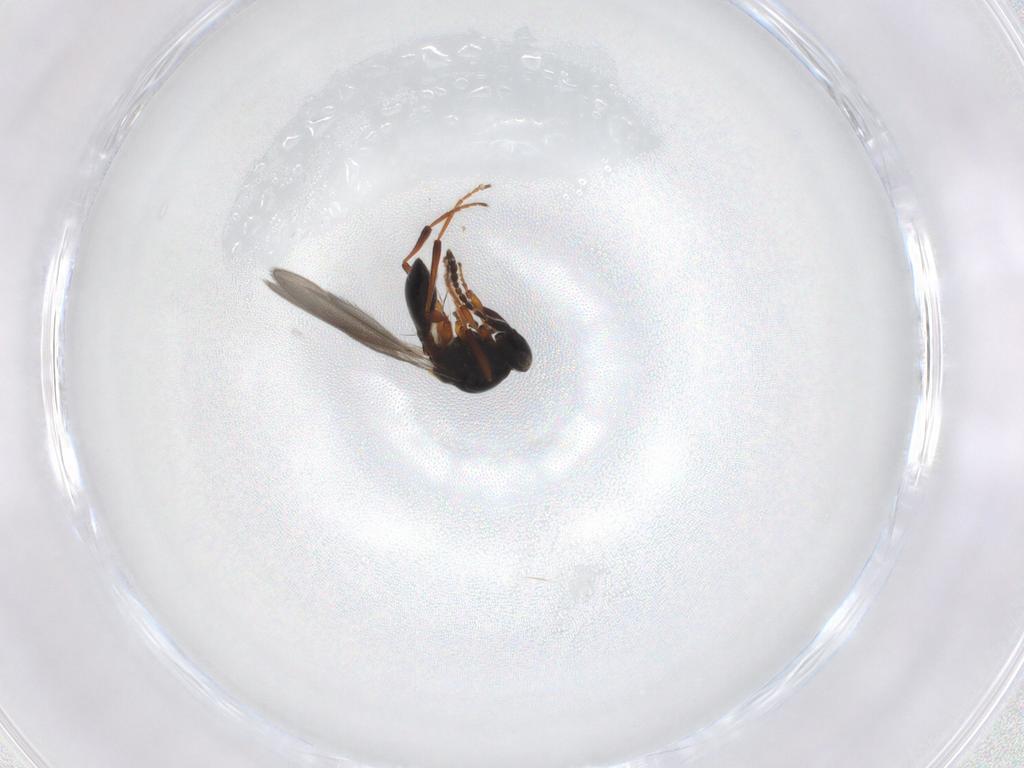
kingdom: Animalia
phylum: Arthropoda
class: Insecta
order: Hymenoptera
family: Platygastridae
